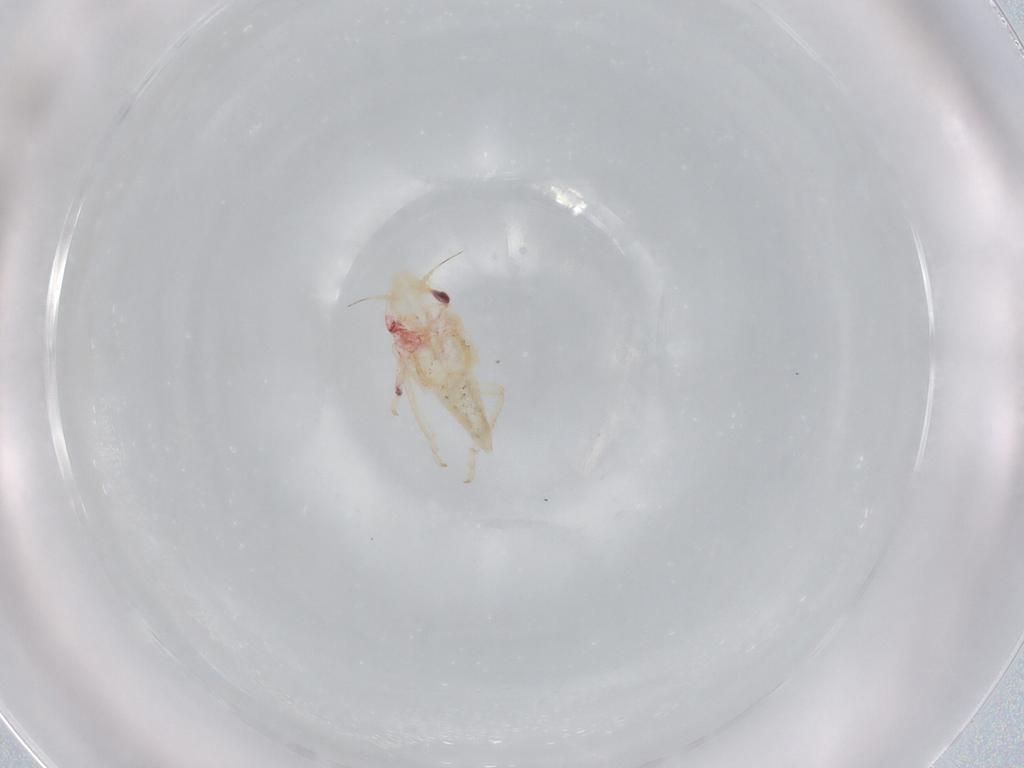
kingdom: Animalia
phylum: Arthropoda
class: Insecta
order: Hemiptera
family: Cicadellidae
